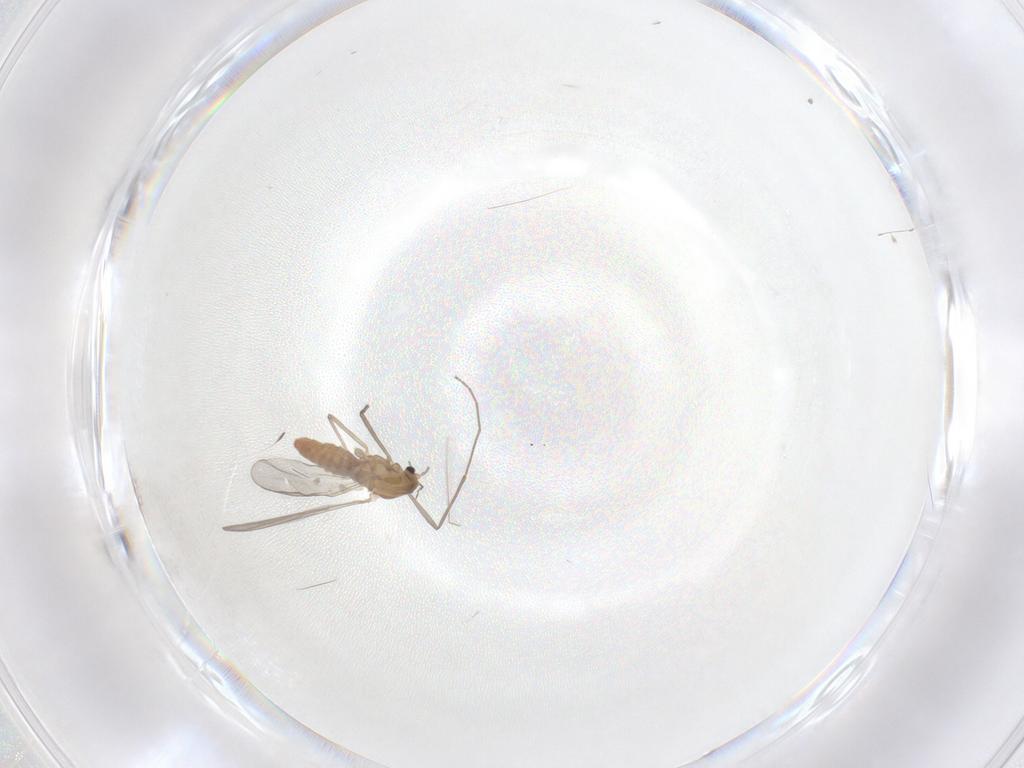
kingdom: Animalia
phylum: Arthropoda
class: Insecta
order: Diptera
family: Chironomidae
